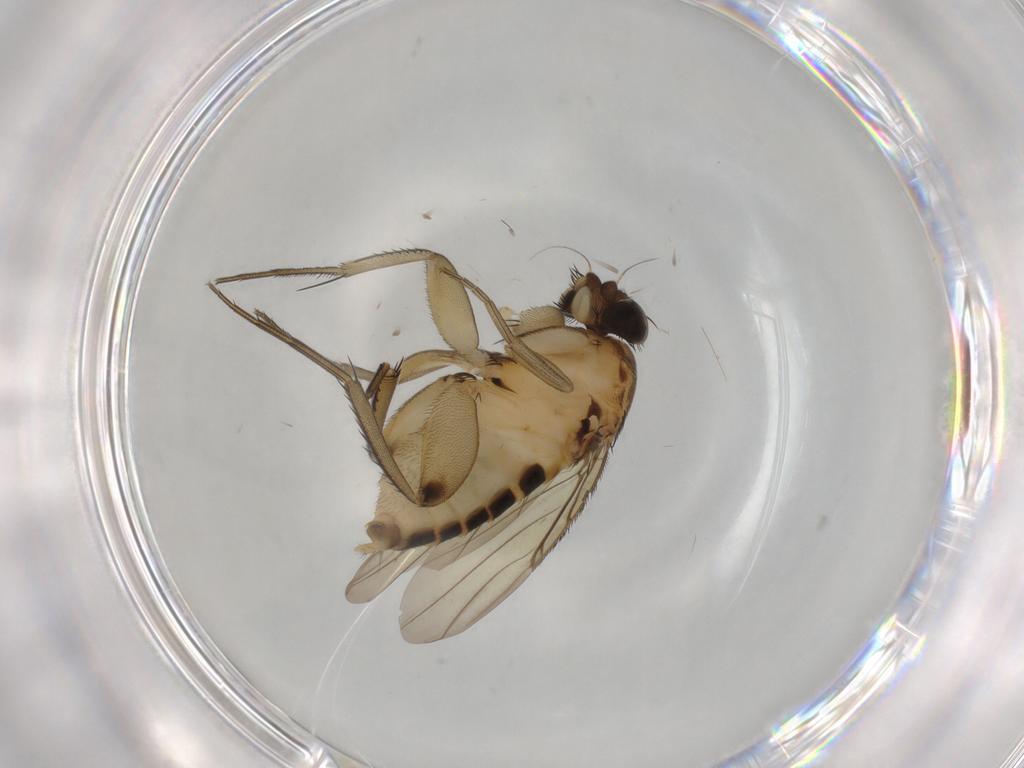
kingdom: Animalia
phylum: Arthropoda
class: Insecta
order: Diptera
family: Phoridae
